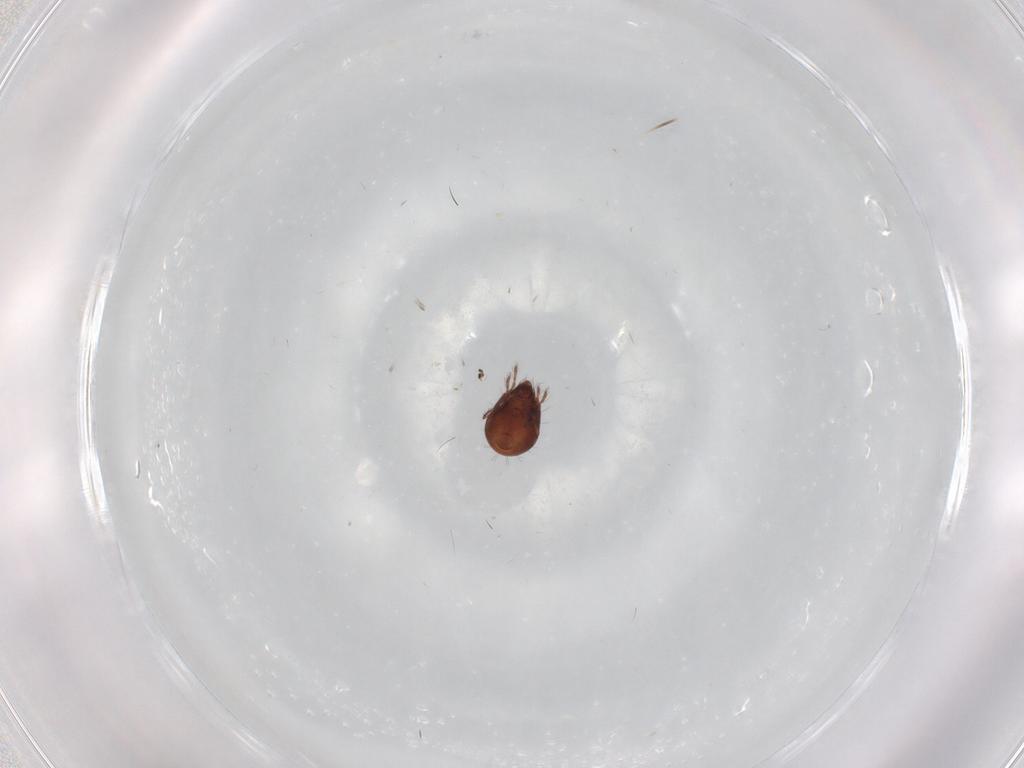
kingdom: Animalia
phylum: Arthropoda
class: Arachnida
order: Sarcoptiformes
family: Humerobatidae
